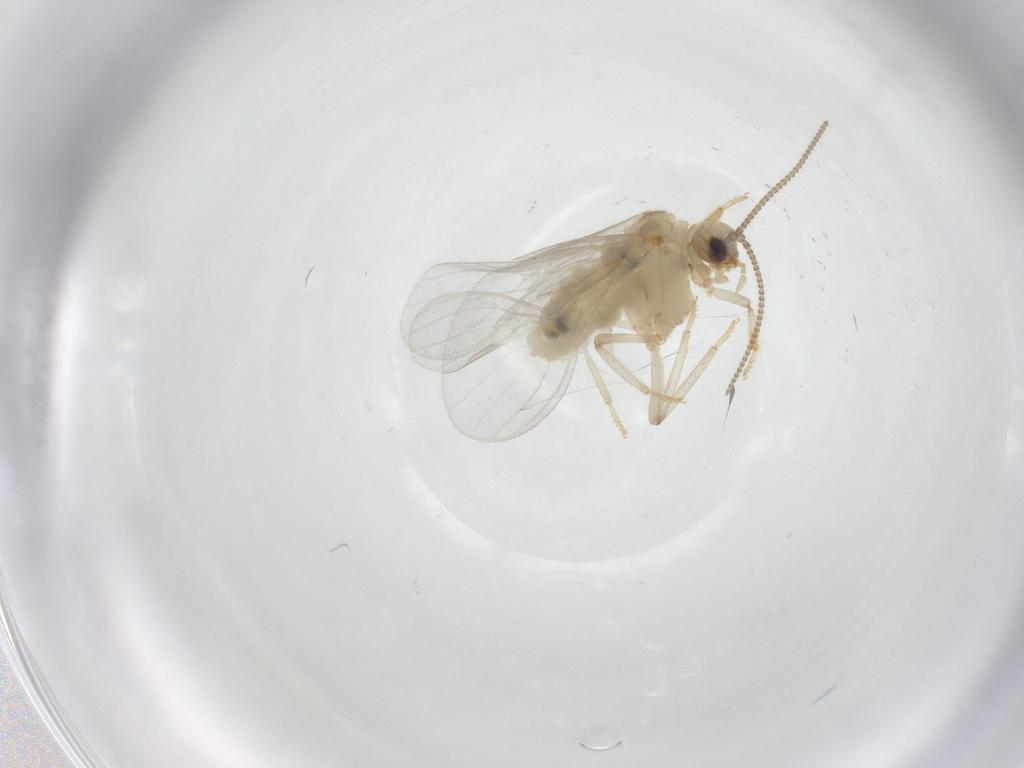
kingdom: Animalia
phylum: Arthropoda
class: Insecta
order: Neuroptera
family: Coniopterygidae
